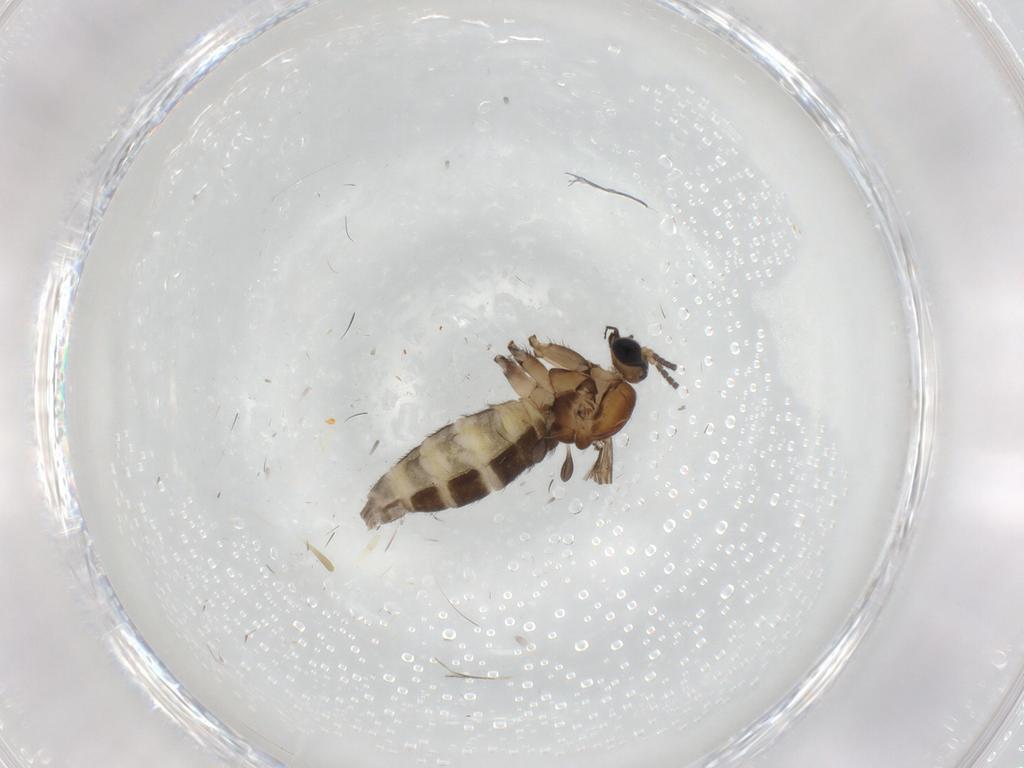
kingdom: Animalia
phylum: Arthropoda
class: Insecta
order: Diptera
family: Sciaridae
